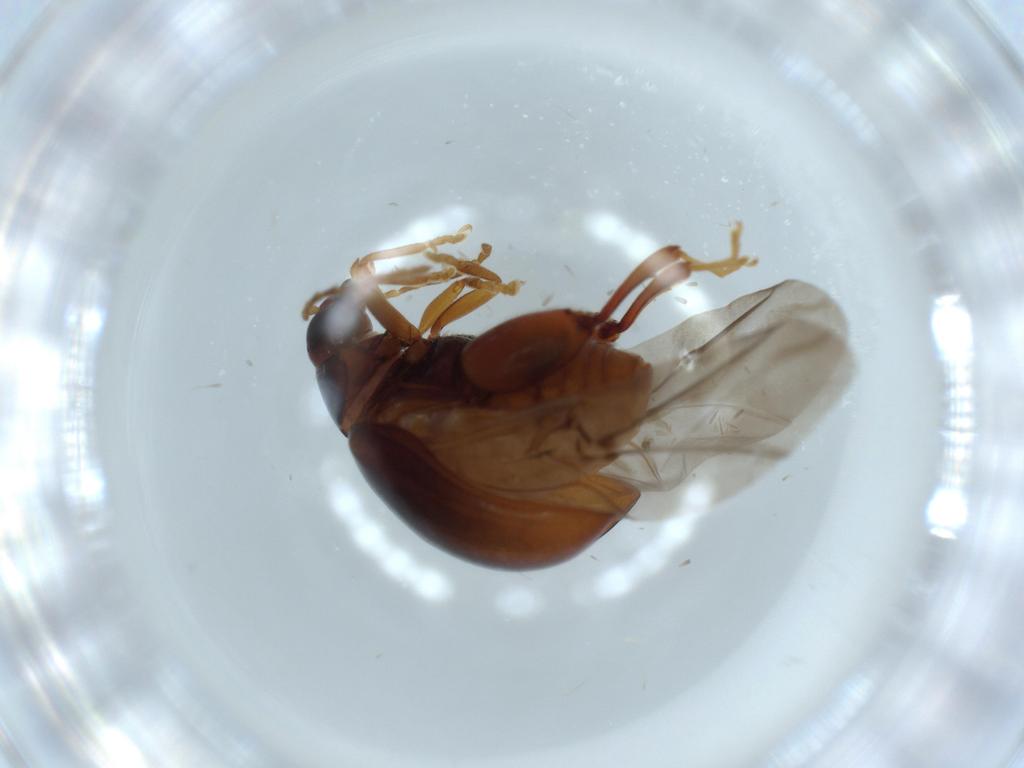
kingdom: Animalia
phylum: Arthropoda
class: Insecta
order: Coleoptera
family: Chrysomelidae
